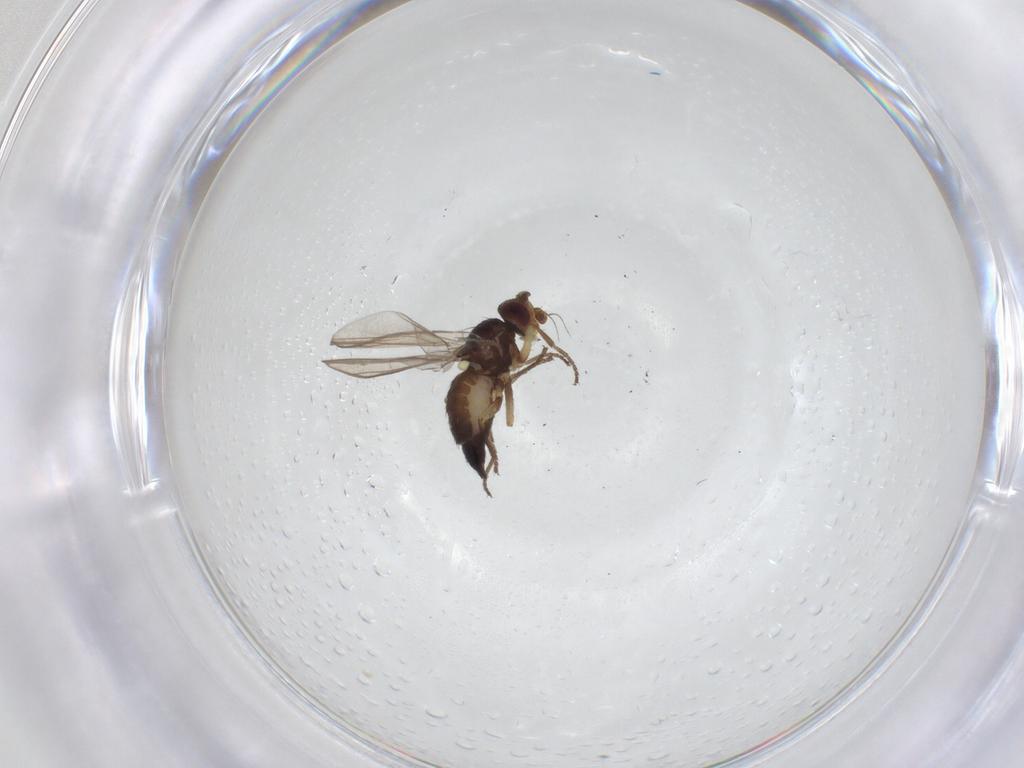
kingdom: Animalia
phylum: Arthropoda
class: Insecta
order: Diptera
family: Agromyzidae
